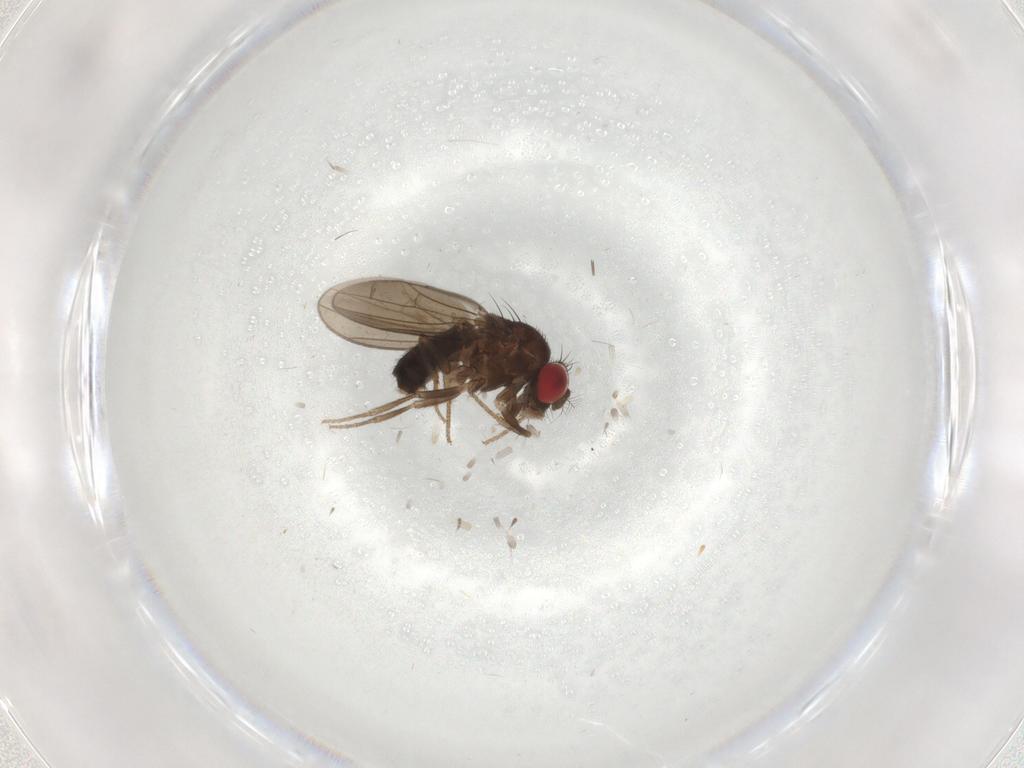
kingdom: Animalia
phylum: Arthropoda
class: Insecta
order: Diptera
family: Drosophilidae
